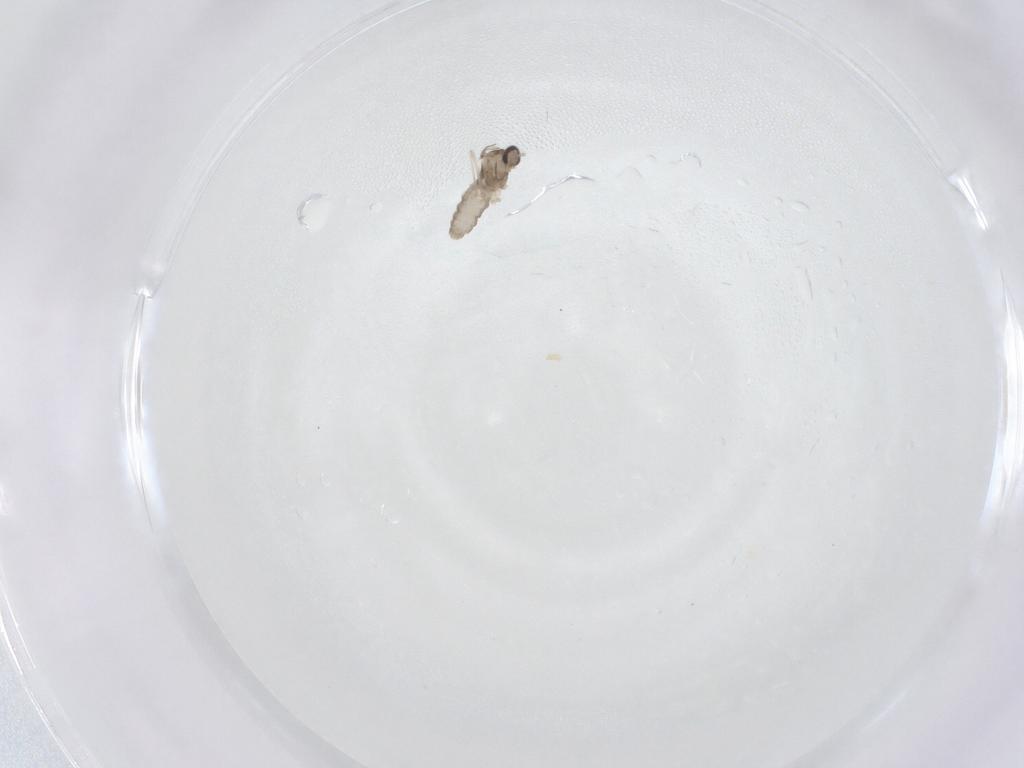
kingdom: Animalia
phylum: Arthropoda
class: Insecta
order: Diptera
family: Cecidomyiidae
